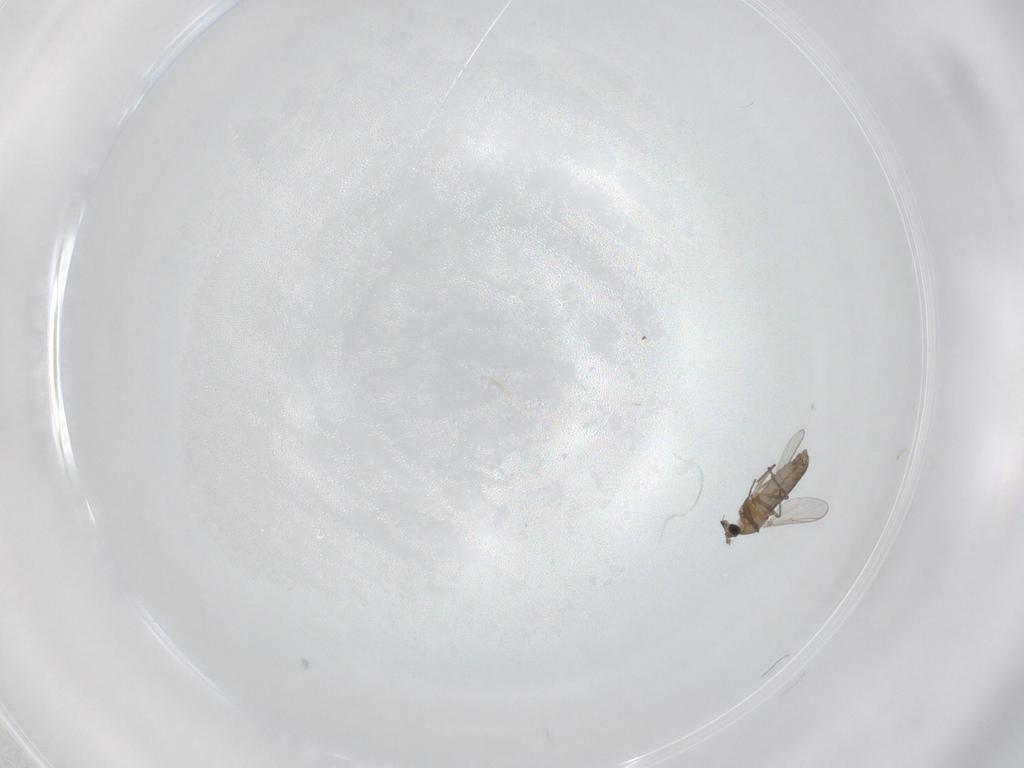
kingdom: Animalia
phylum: Arthropoda
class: Insecta
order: Diptera
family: Chironomidae
